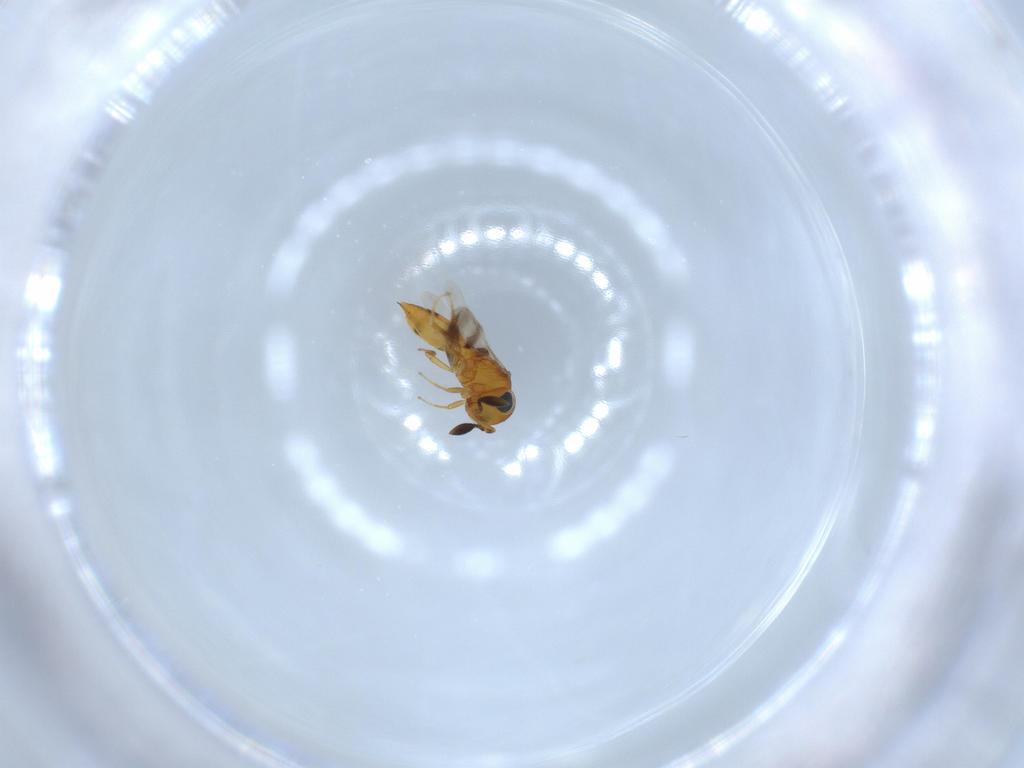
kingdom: Animalia
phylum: Arthropoda
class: Insecta
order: Hymenoptera
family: Scelionidae
